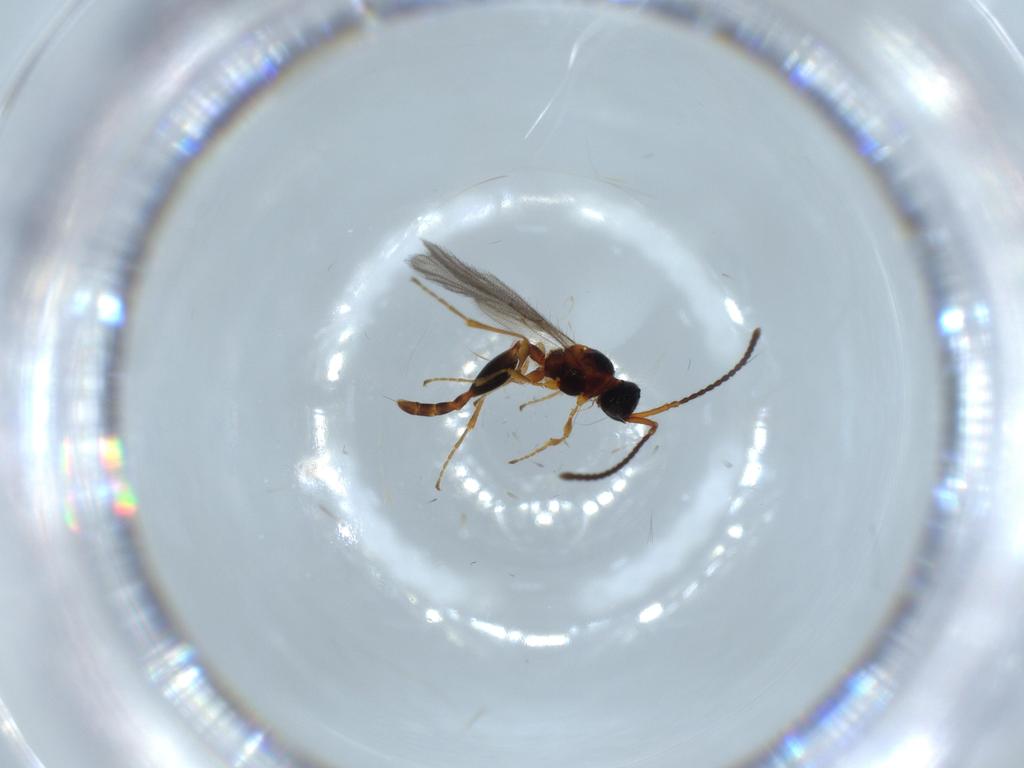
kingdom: Animalia
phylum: Arthropoda
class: Insecta
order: Hymenoptera
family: Diapriidae
